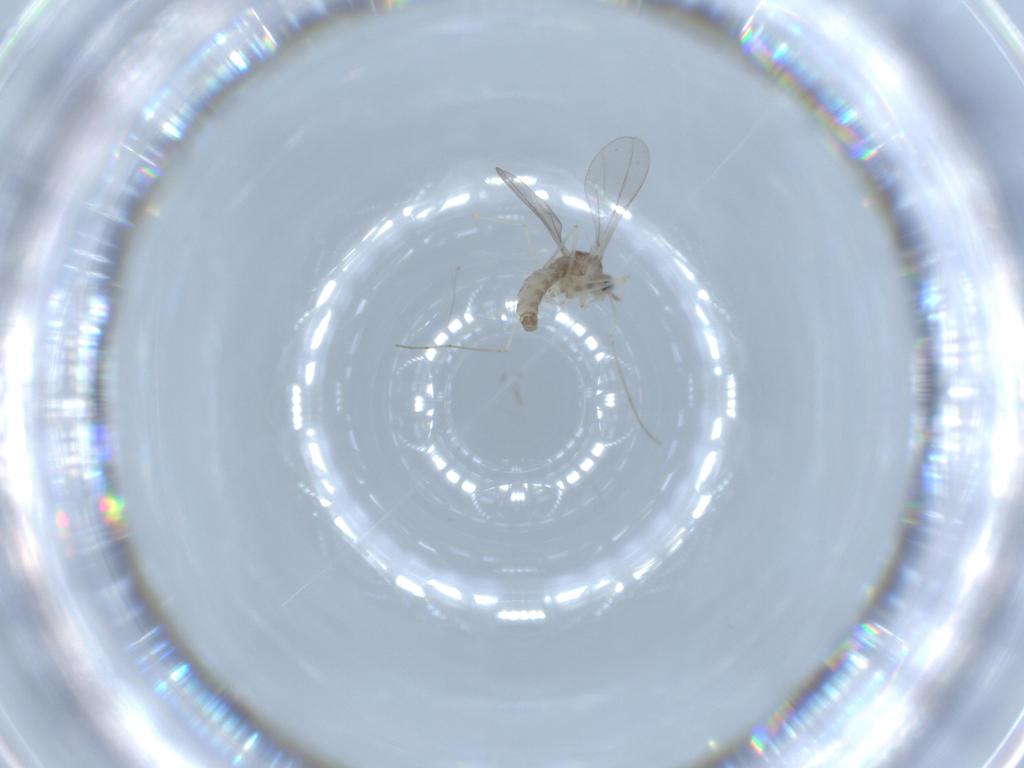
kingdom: Animalia
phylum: Arthropoda
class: Insecta
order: Diptera
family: Cecidomyiidae
